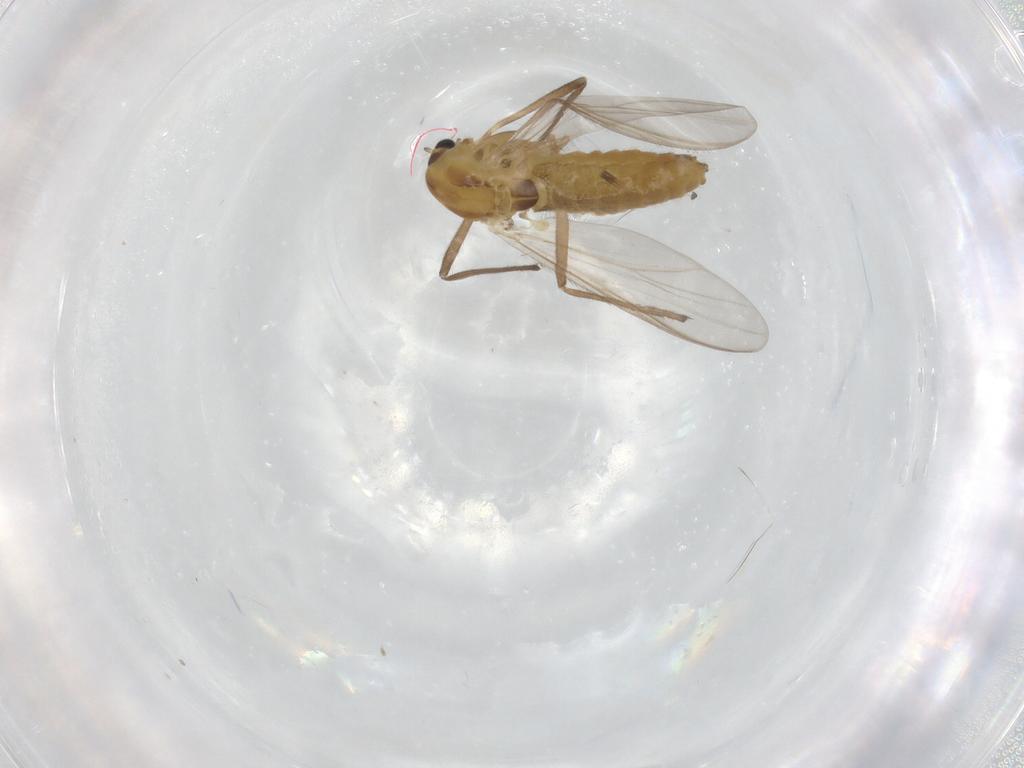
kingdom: Animalia
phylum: Arthropoda
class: Insecta
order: Diptera
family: Chironomidae
